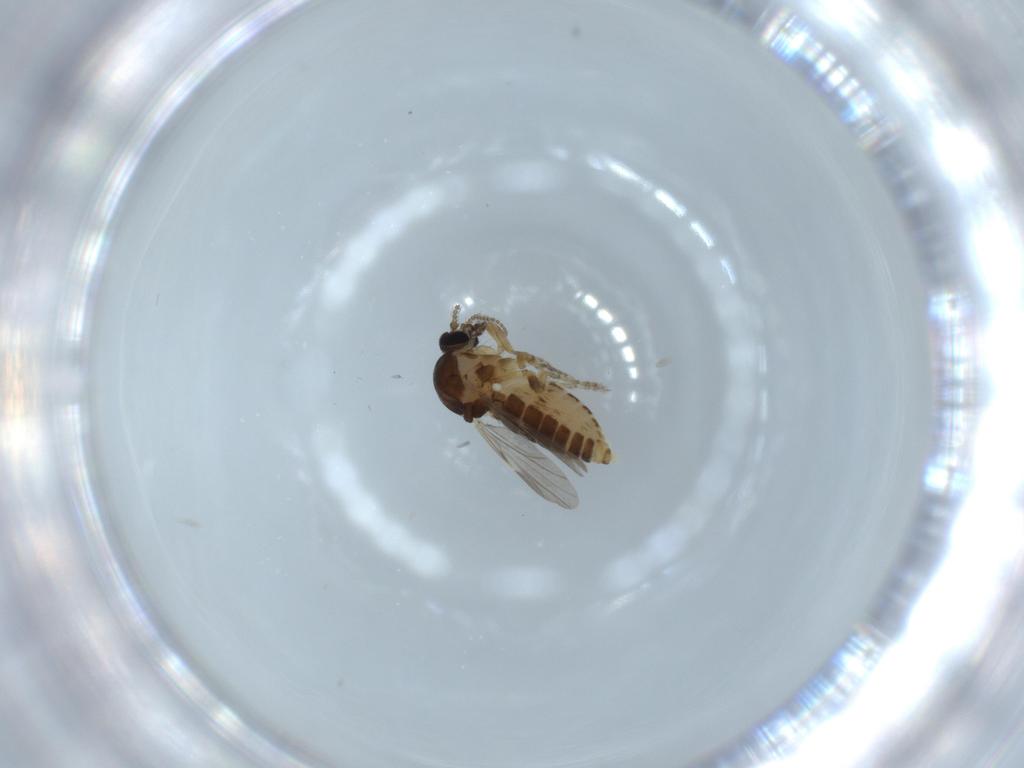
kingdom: Animalia
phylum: Arthropoda
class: Insecta
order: Diptera
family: Ceratopogonidae
